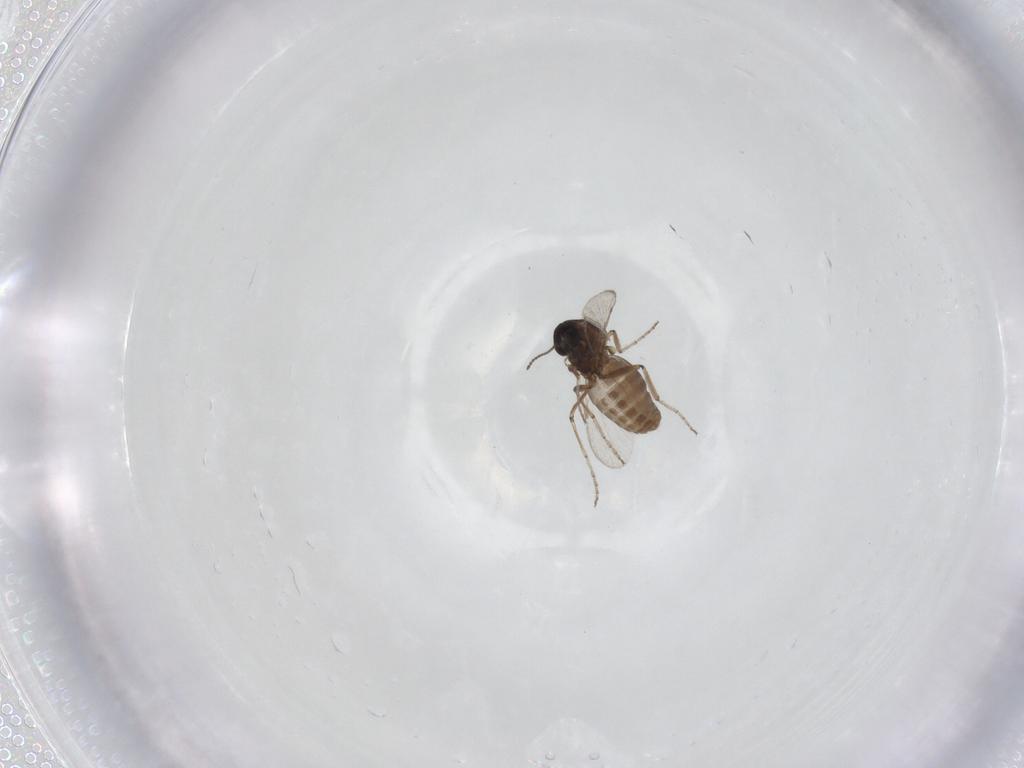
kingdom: Animalia
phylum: Arthropoda
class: Insecta
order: Diptera
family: Ceratopogonidae
